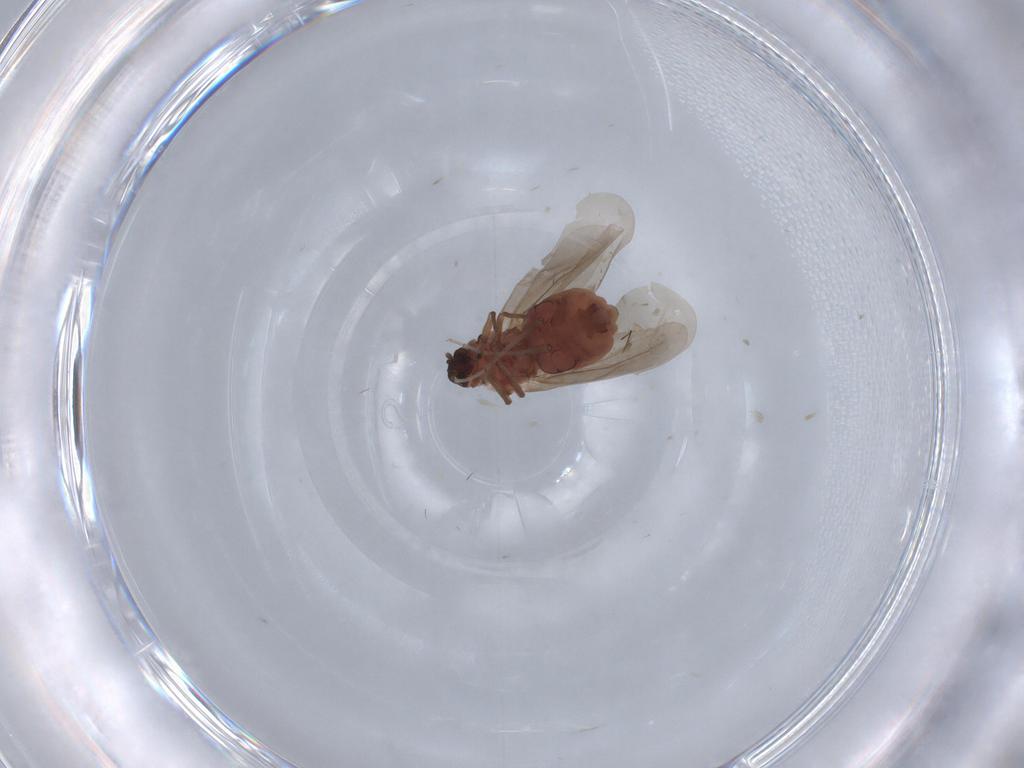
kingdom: Animalia
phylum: Arthropoda
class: Insecta
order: Hemiptera
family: Aleyrodidae
